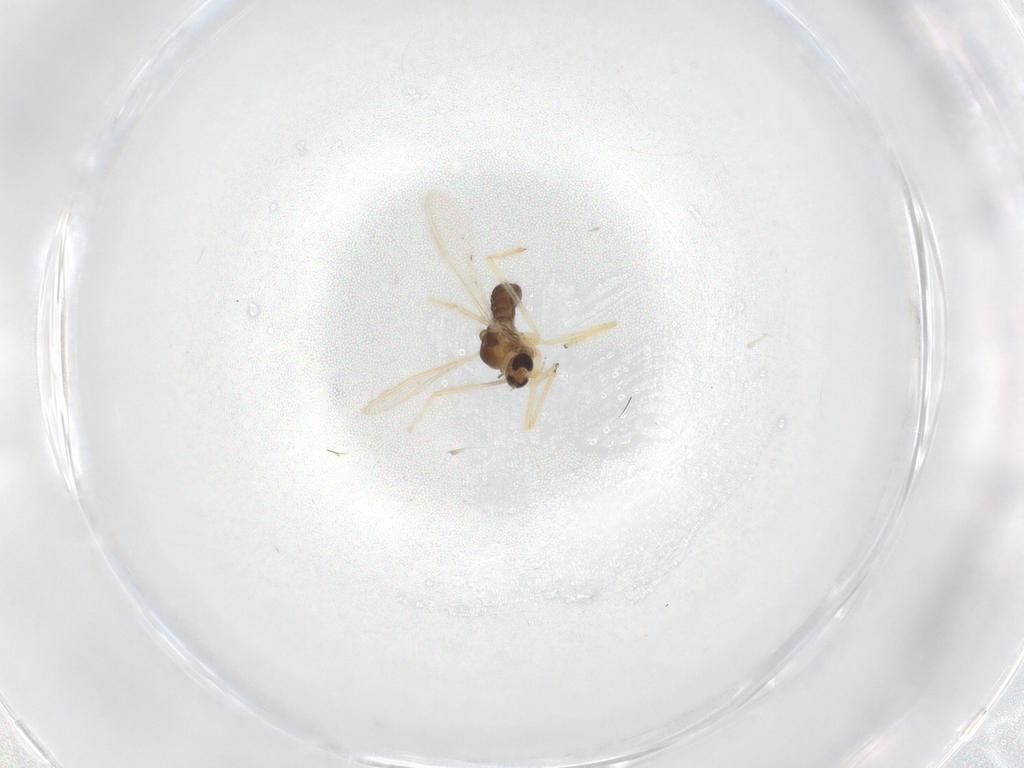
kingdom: Animalia
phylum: Arthropoda
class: Insecta
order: Diptera
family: Chironomidae
